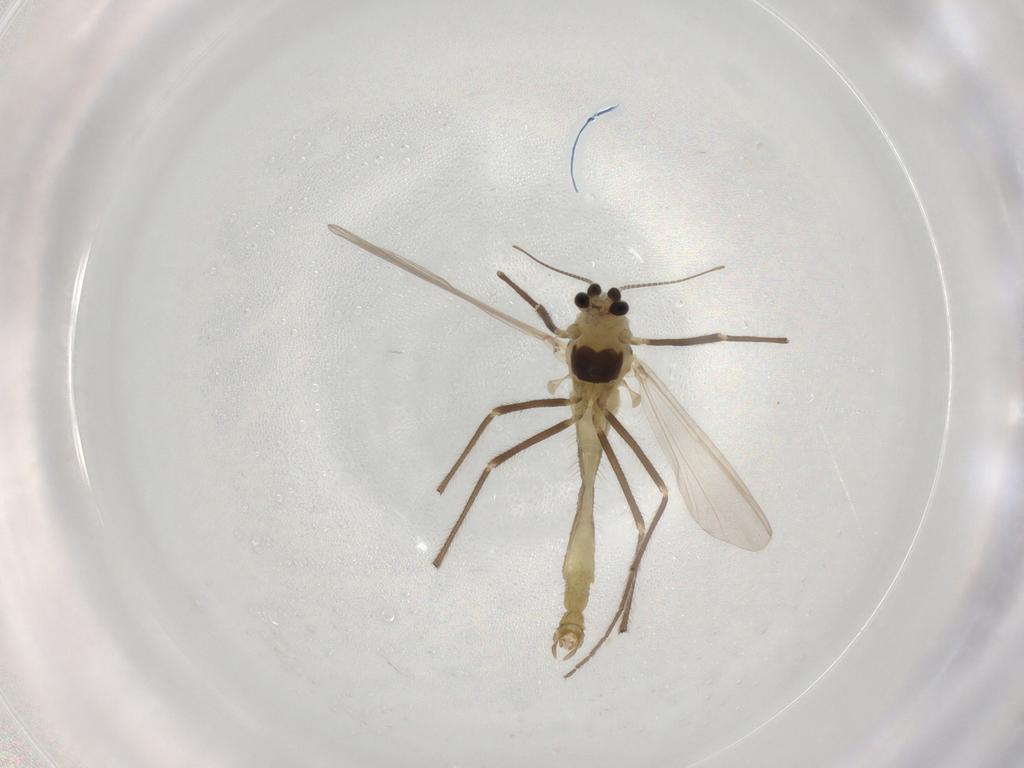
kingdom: Animalia
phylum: Arthropoda
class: Insecta
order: Diptera
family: Chironomidae
